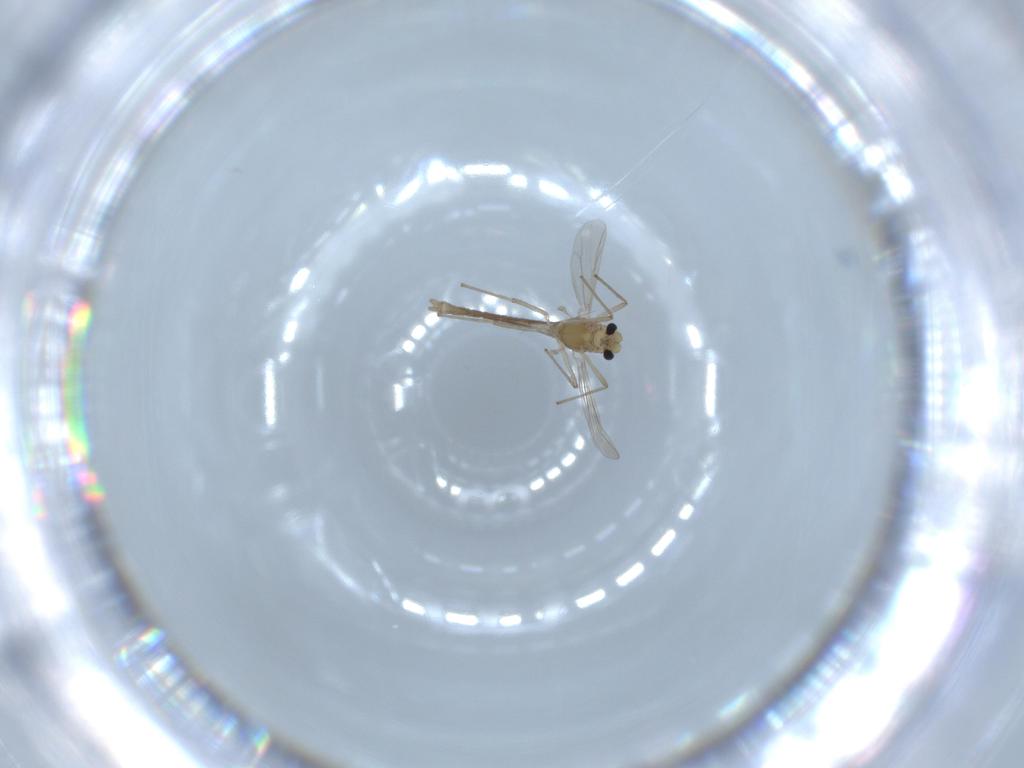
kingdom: Animalia
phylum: Arthropoda
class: Insecta
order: Diptera
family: Chironomidae
